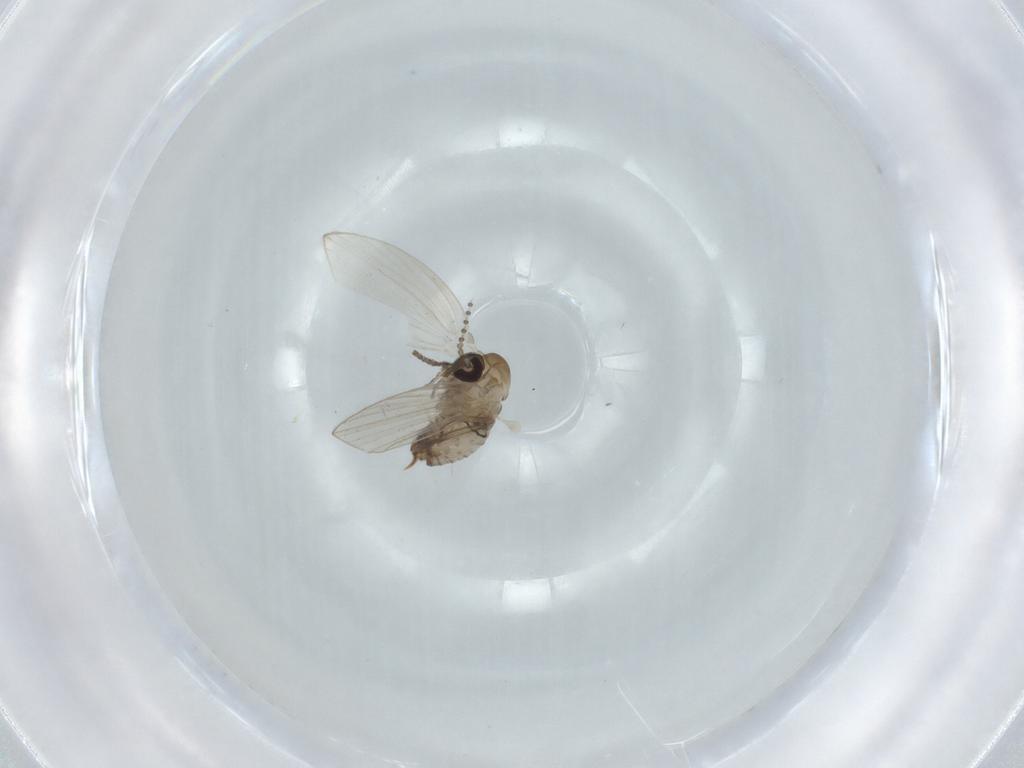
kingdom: Animalia
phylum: Arthropoda
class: Insecta
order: Diptera
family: Psychodidae
